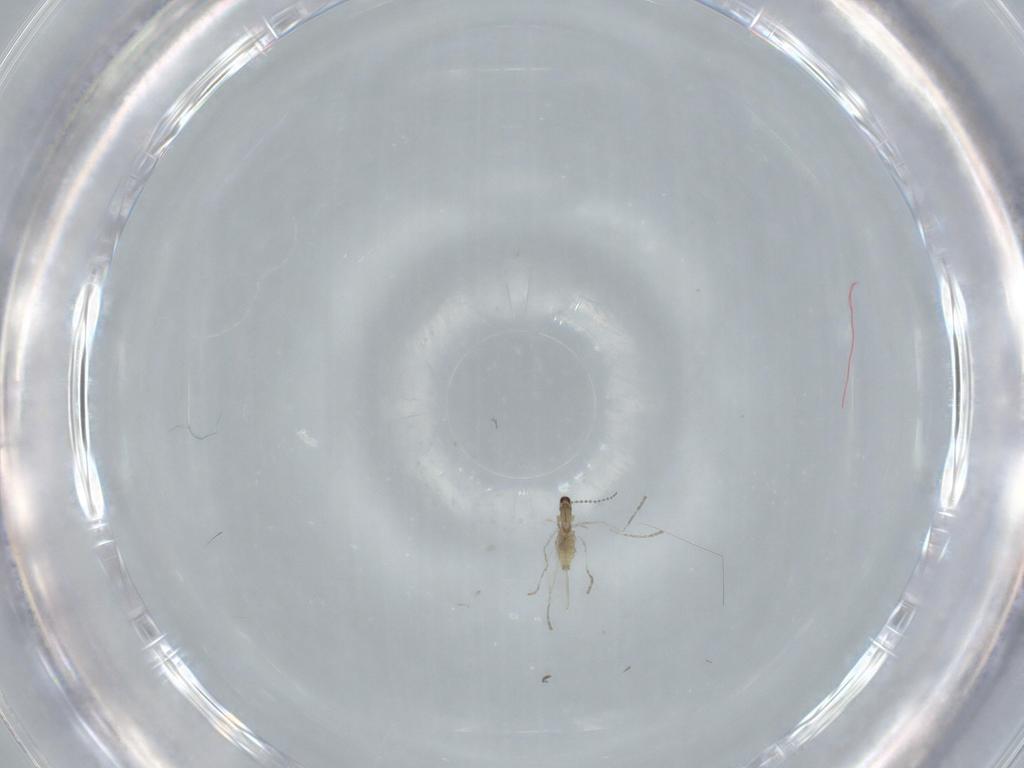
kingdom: Animalia
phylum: Arthropoda
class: Insecta
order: Diptera
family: Cecidomyiidae
